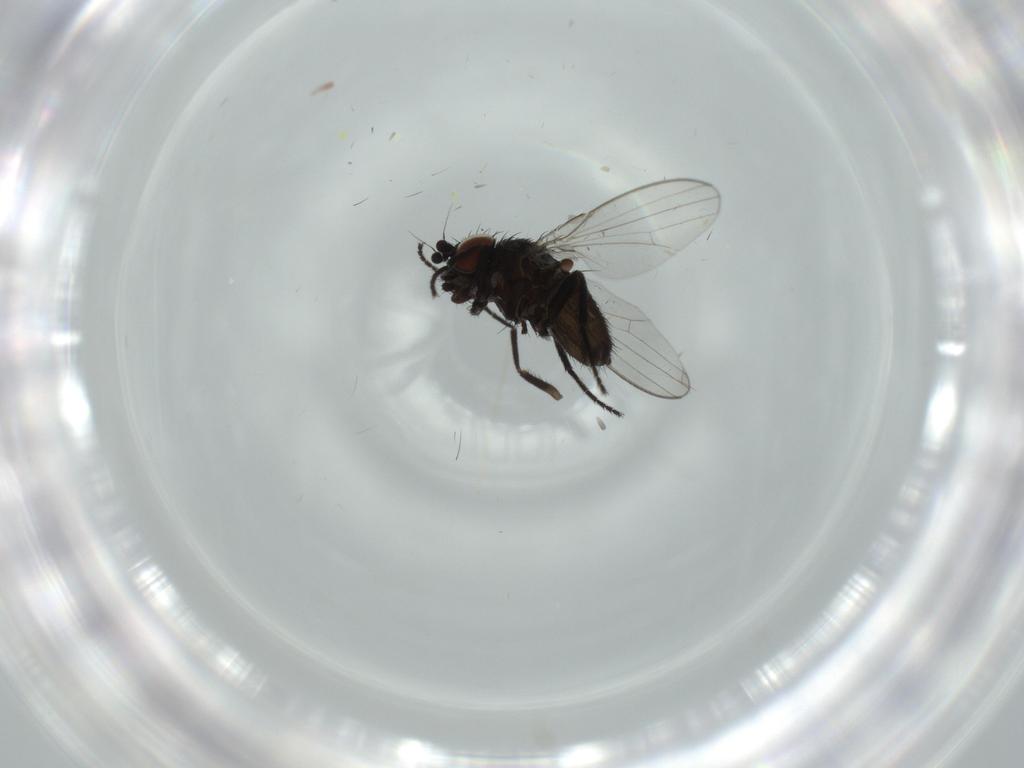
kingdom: Animalia
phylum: Arthropoda
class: Insecta
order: Diptera
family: Milichiidae
